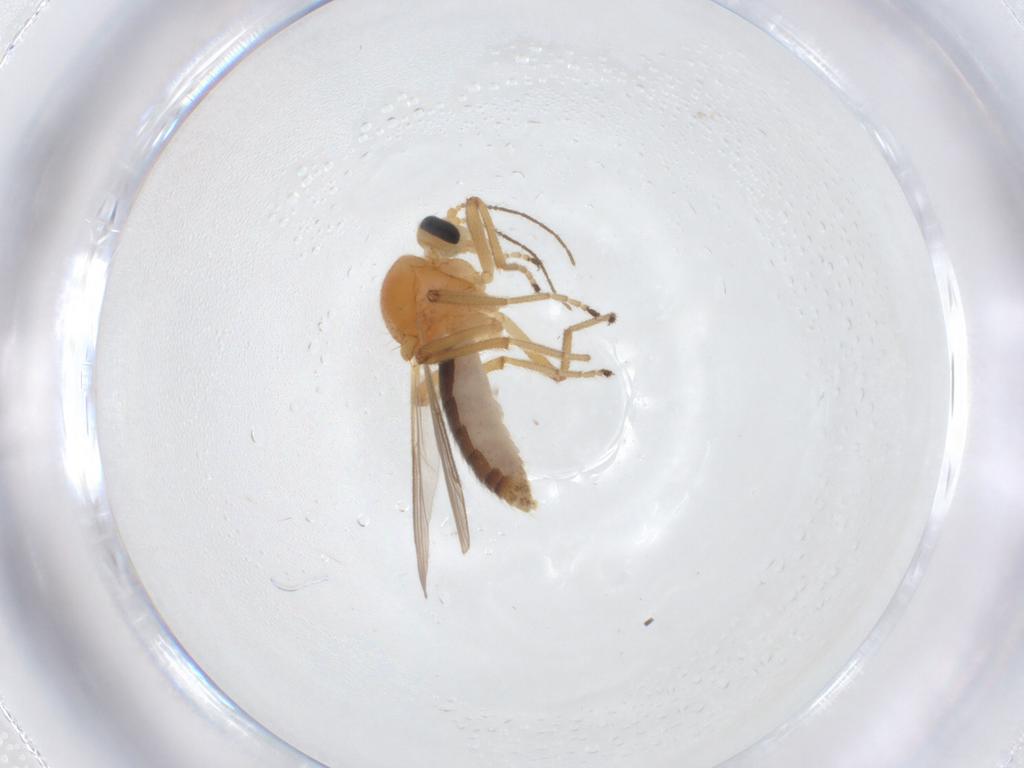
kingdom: Animalia
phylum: Arthropoda
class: Insecta
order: Diptera
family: Ceratopogonidae
